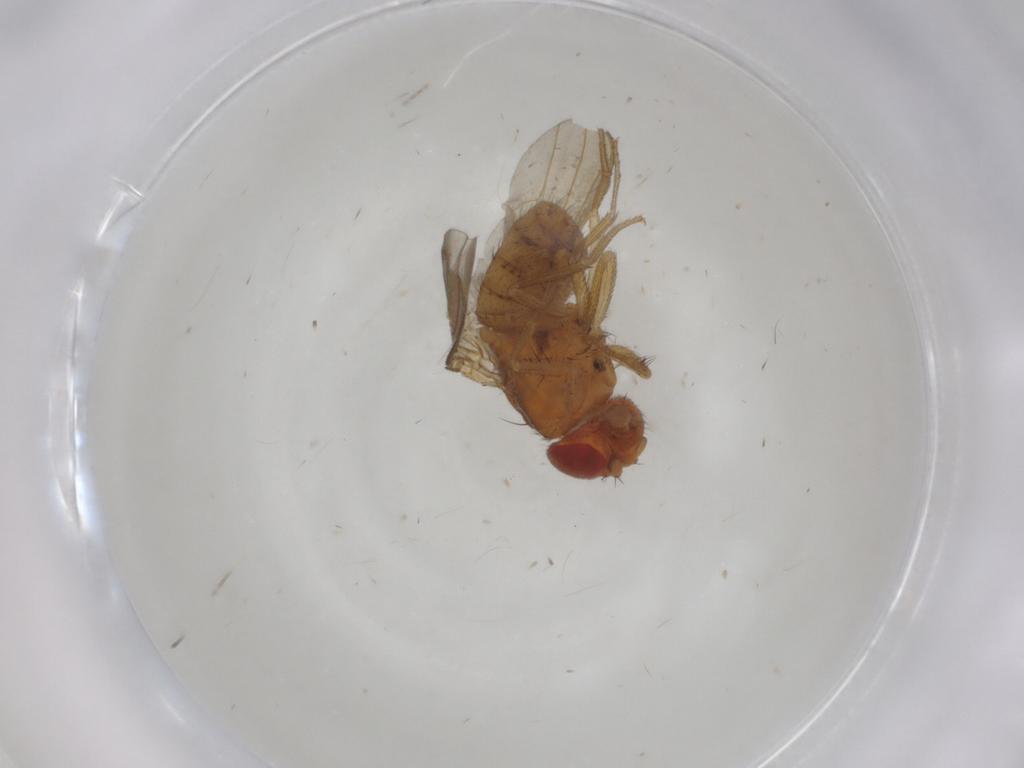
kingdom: Animalia
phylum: Arthropoda
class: Insecta
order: Diptera
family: Drosophilidae
